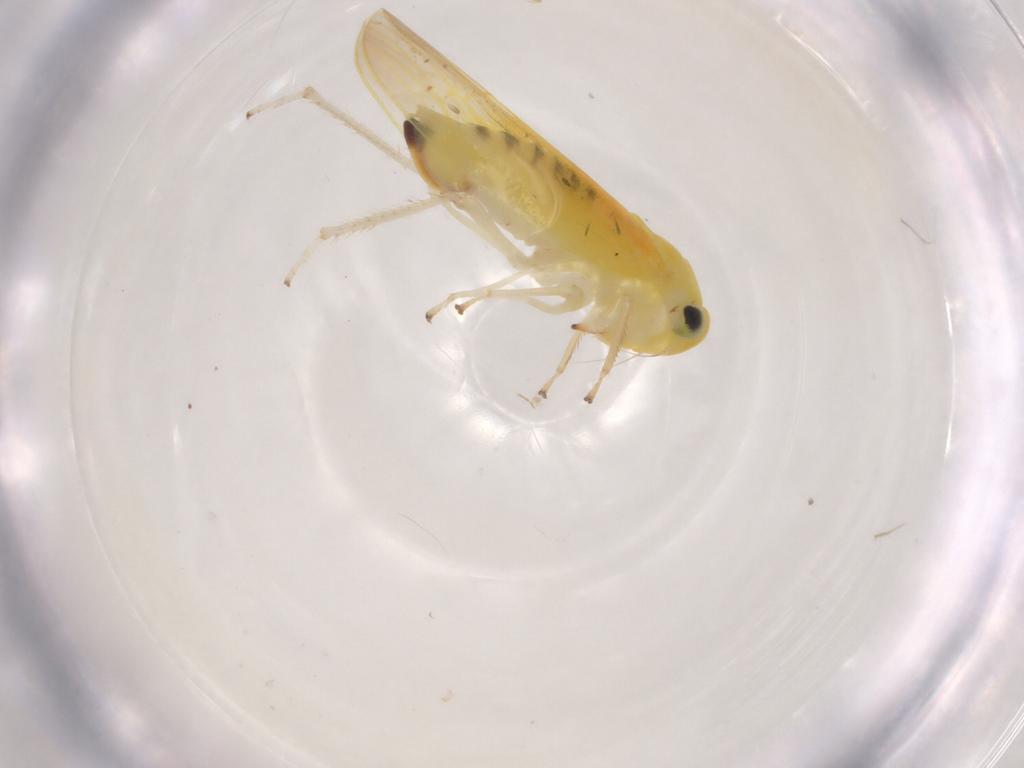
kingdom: Animalia
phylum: Arthropoda
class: Insecta
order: Hemiptera
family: Cicadellidae
